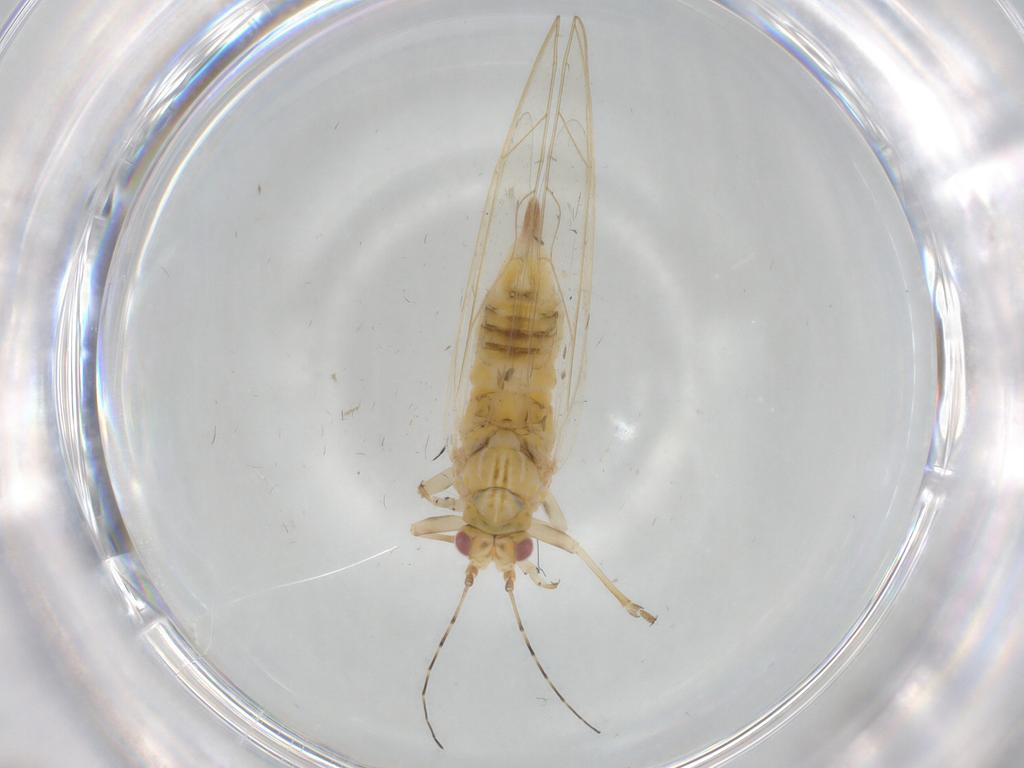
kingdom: Animalia
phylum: Arthropoda
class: Insecta
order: Hemiptera
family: Carsidaridae
